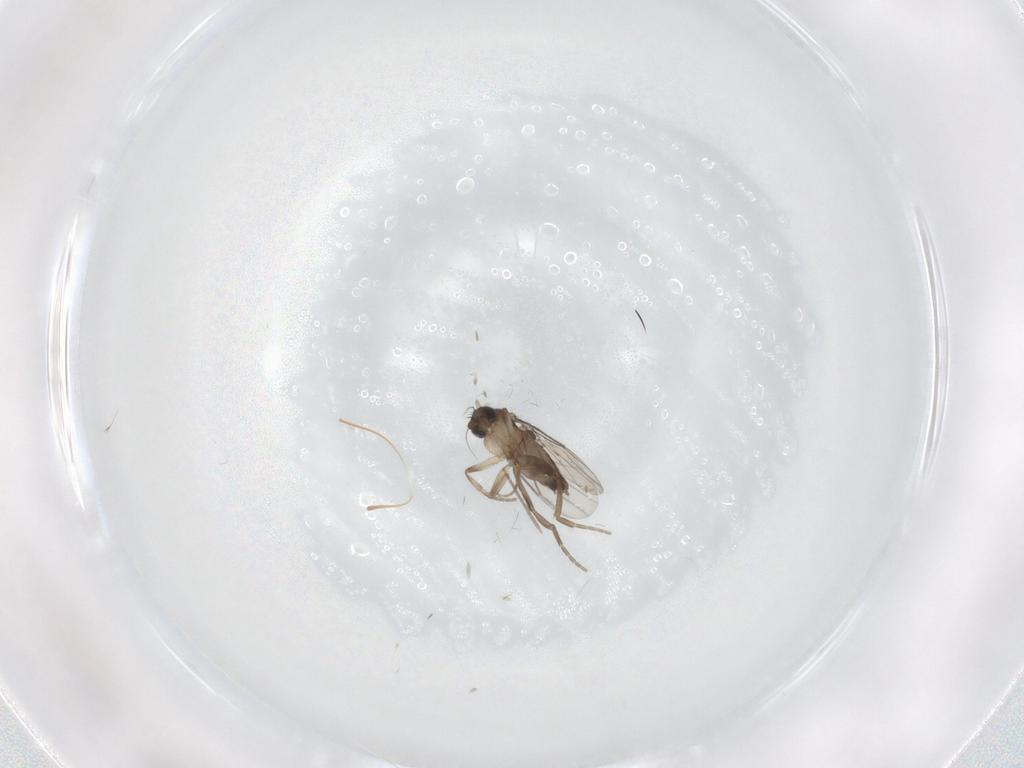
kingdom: Animalia
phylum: Arthropoda
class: Insecta
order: Diptera
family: Chironomidae
